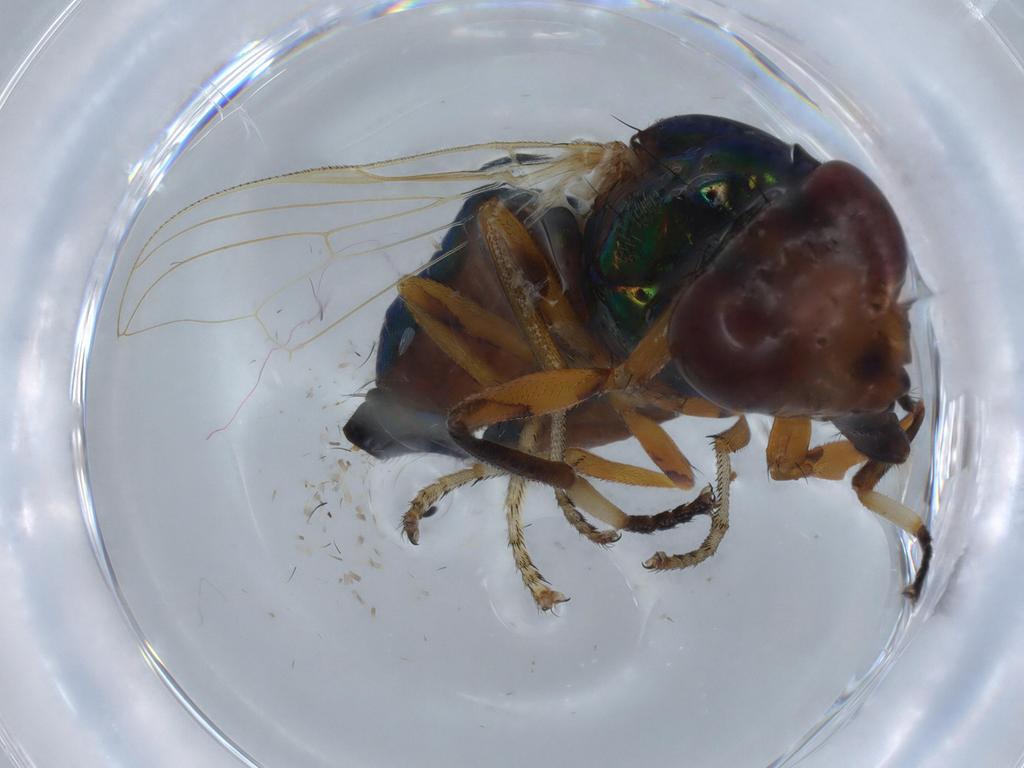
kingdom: Animalia
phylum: Arthropoda
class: Insecta
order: Diptera
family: Ulidiidae
